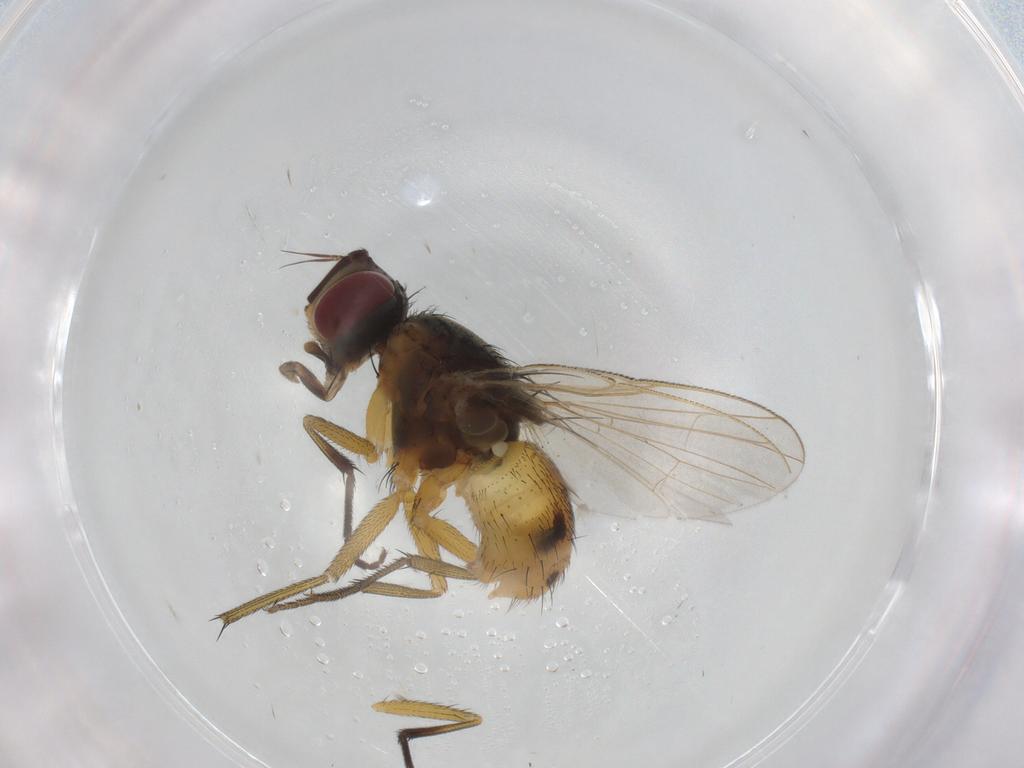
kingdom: Animalia
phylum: Arthropoda
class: Insecta
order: Diptera
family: Muscidae
